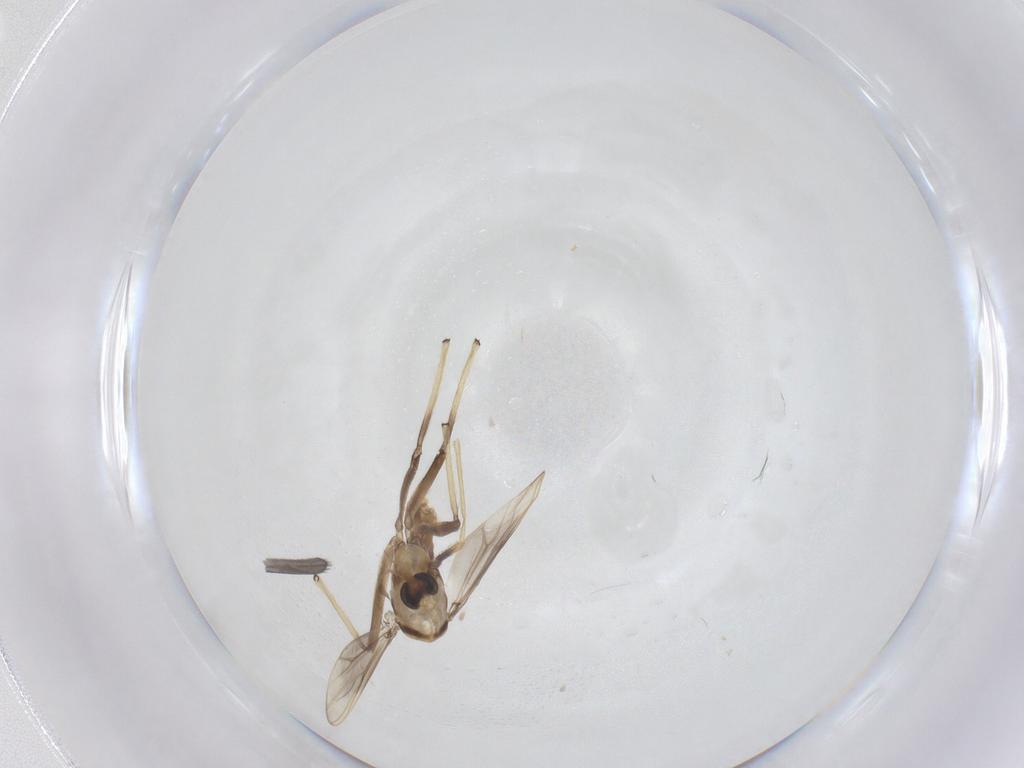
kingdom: Animalia
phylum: Arthropoda
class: Insecta
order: Diptera
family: Chironomidae
